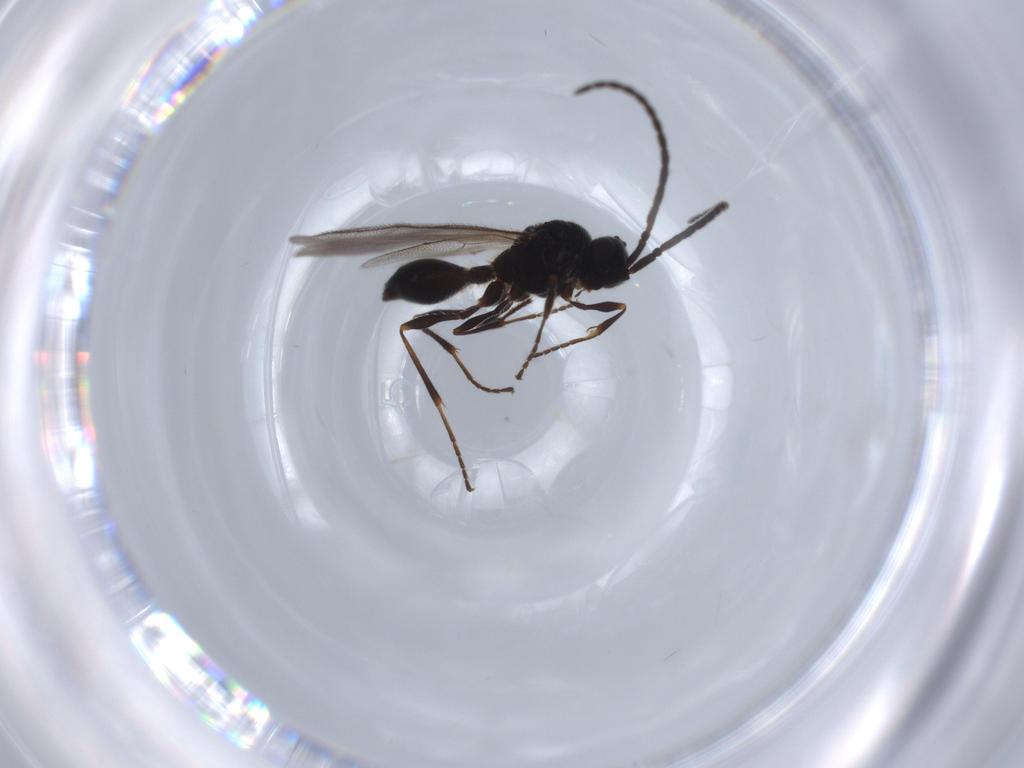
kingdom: Animalia
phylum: Arthropoda
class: Insecta
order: Hymenoptera
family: Diapriidae
